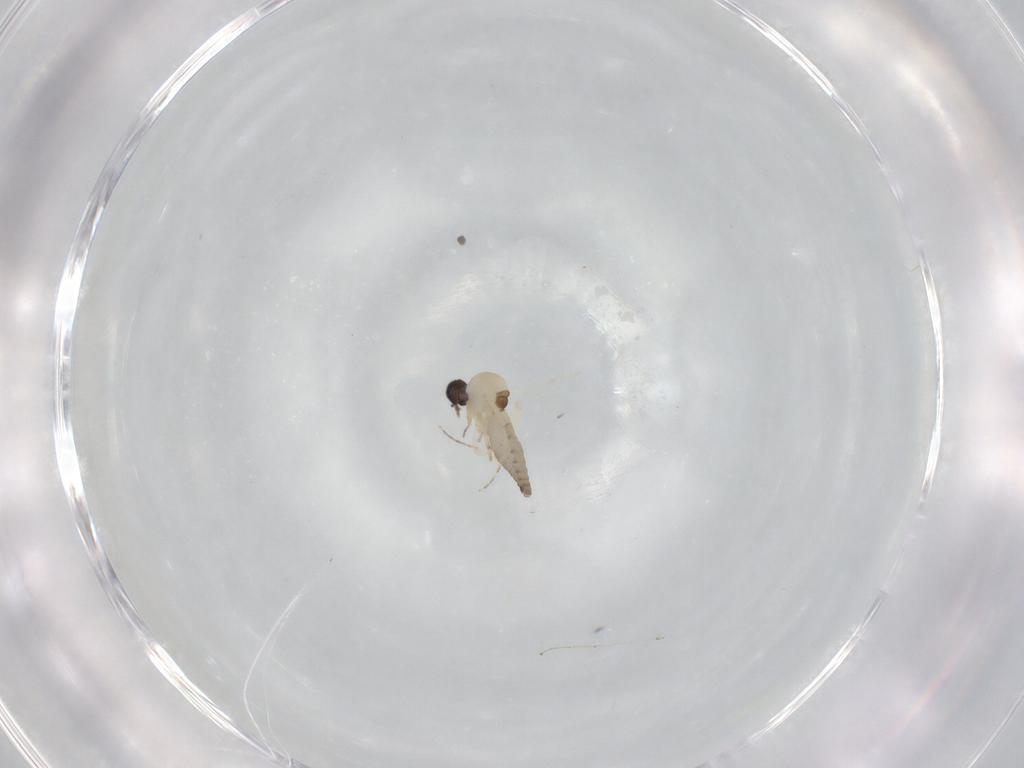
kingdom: Animalia
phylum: Arthropoda
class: Insecta
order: Diptera
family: Ceratopogonidae
